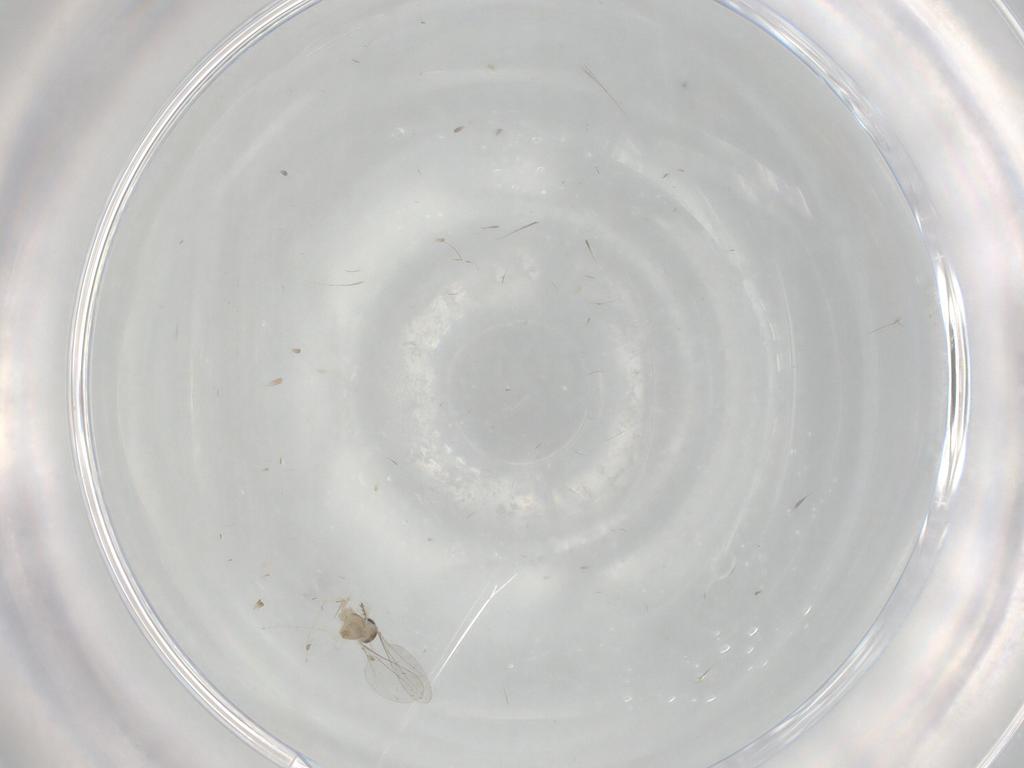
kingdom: Animalia
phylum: Arthropoda
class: Insecta
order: Diptera
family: Cecidomyiidae
